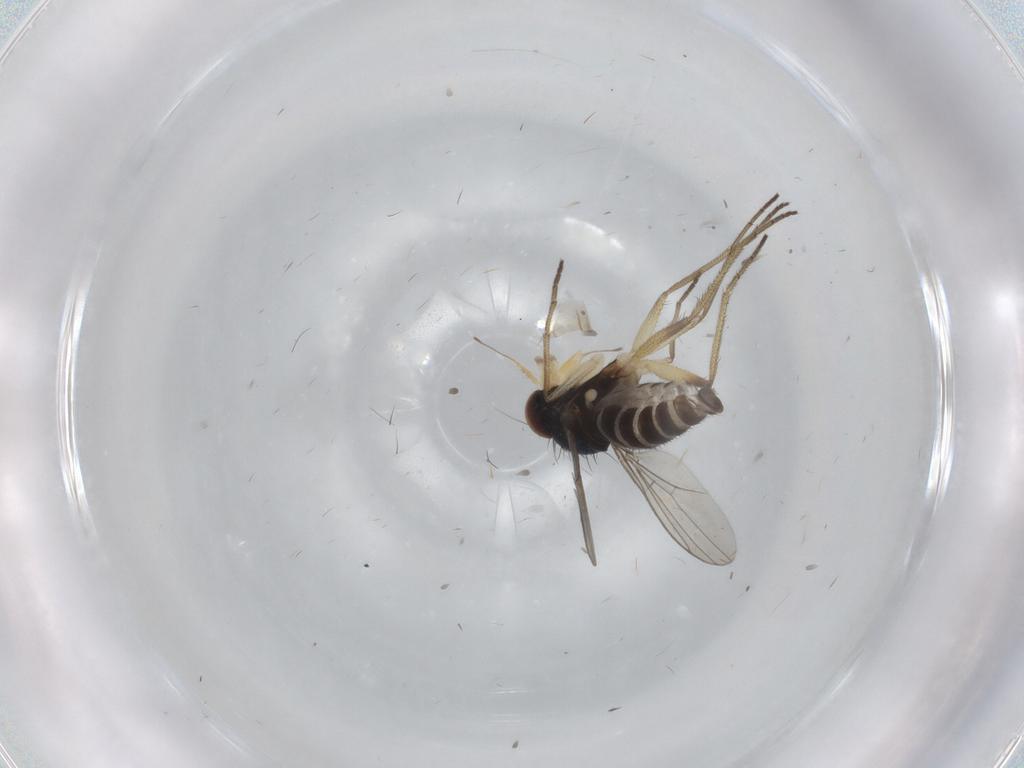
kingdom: Animalia
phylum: Arthropoda
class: Insecta
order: Diptera
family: Dolichopodidae
